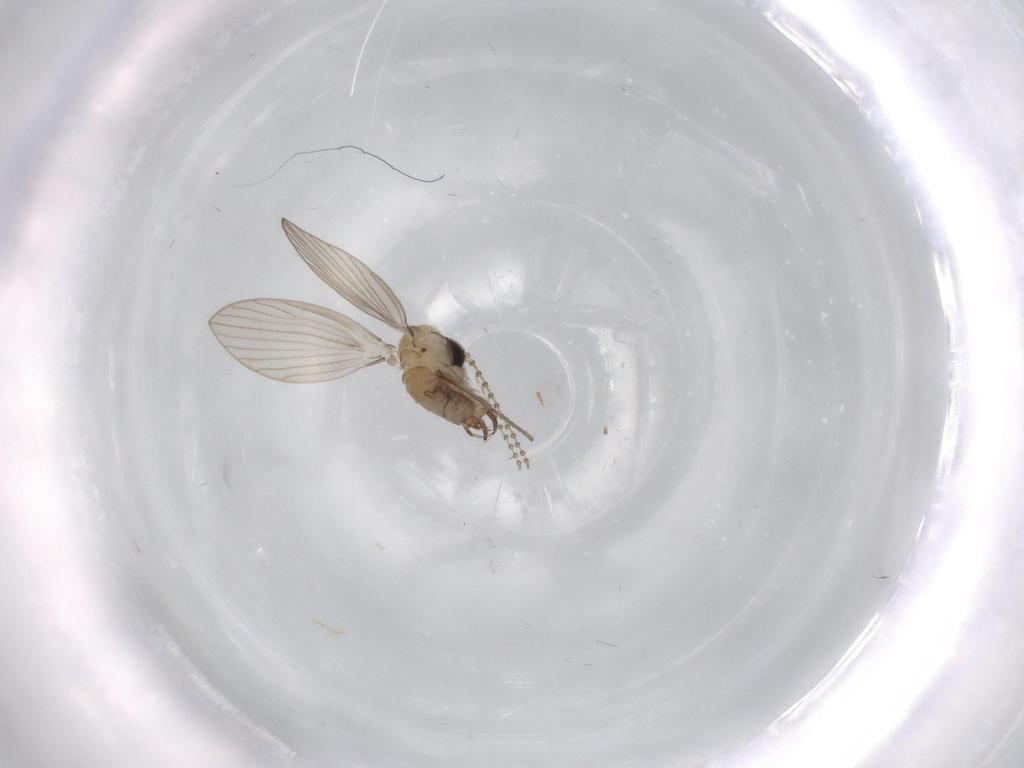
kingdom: Animalia
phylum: Arthropoda
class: Insecta
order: Diptera
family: Psychodidae
